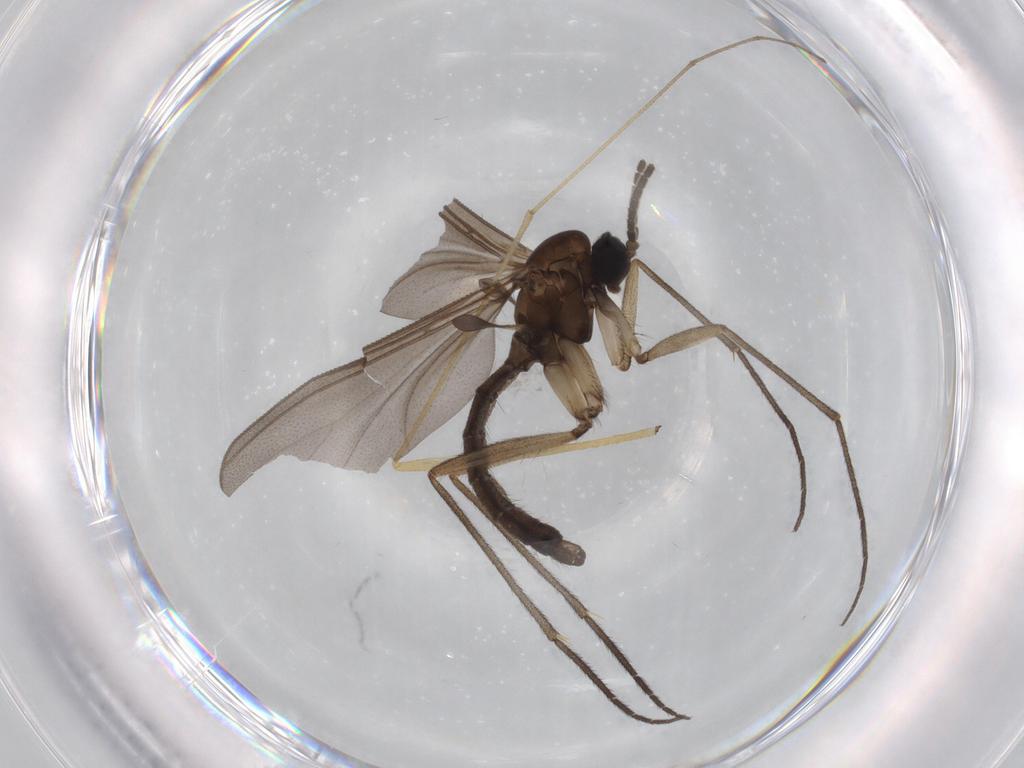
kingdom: Animalia
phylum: Arthropoda
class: Insecta
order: Diptera
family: Sciaridae
